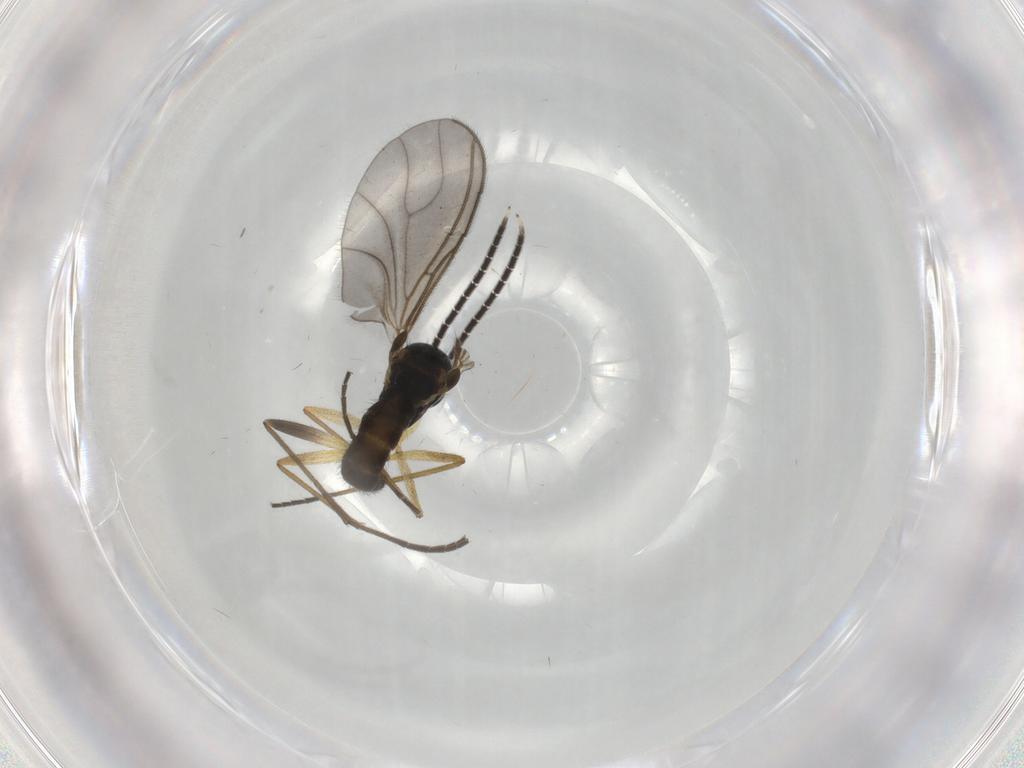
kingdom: Animalia
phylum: Arthropoda
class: Insecta
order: Diptera
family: Sciaridae
